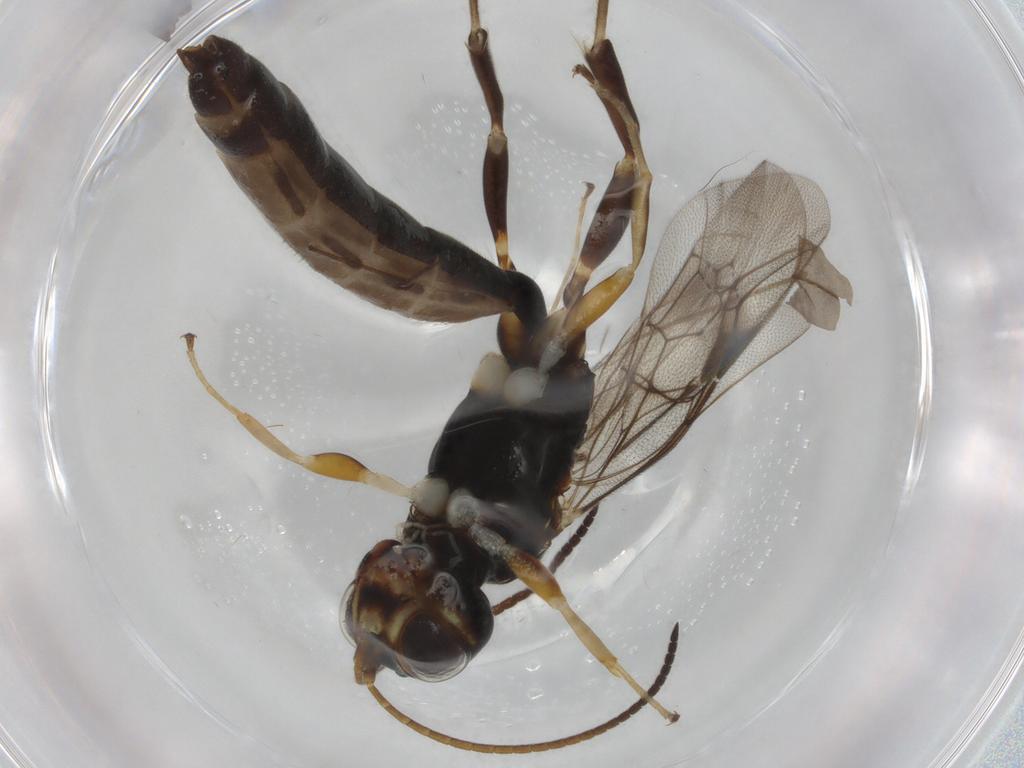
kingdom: Animalia
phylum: Arthropoda
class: Insecta
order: Hymenoptera
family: Ichneumonidae
